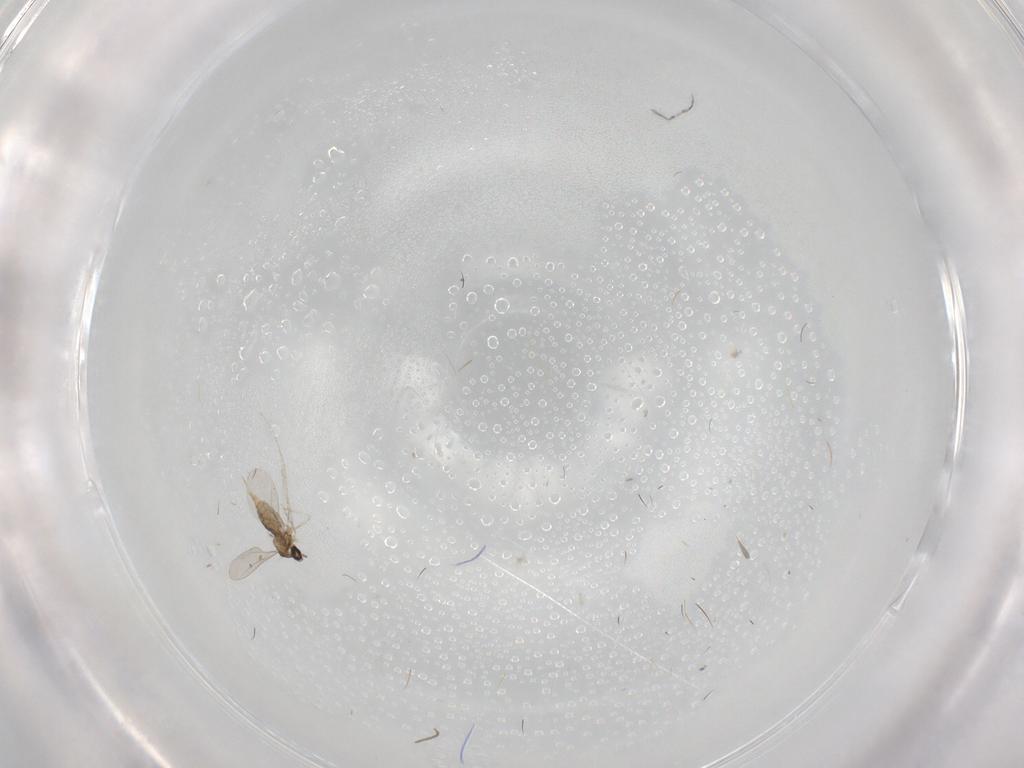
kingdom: Animalia
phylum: Arthropoda
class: Insecta
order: Diptera
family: Cecidomyiidae
